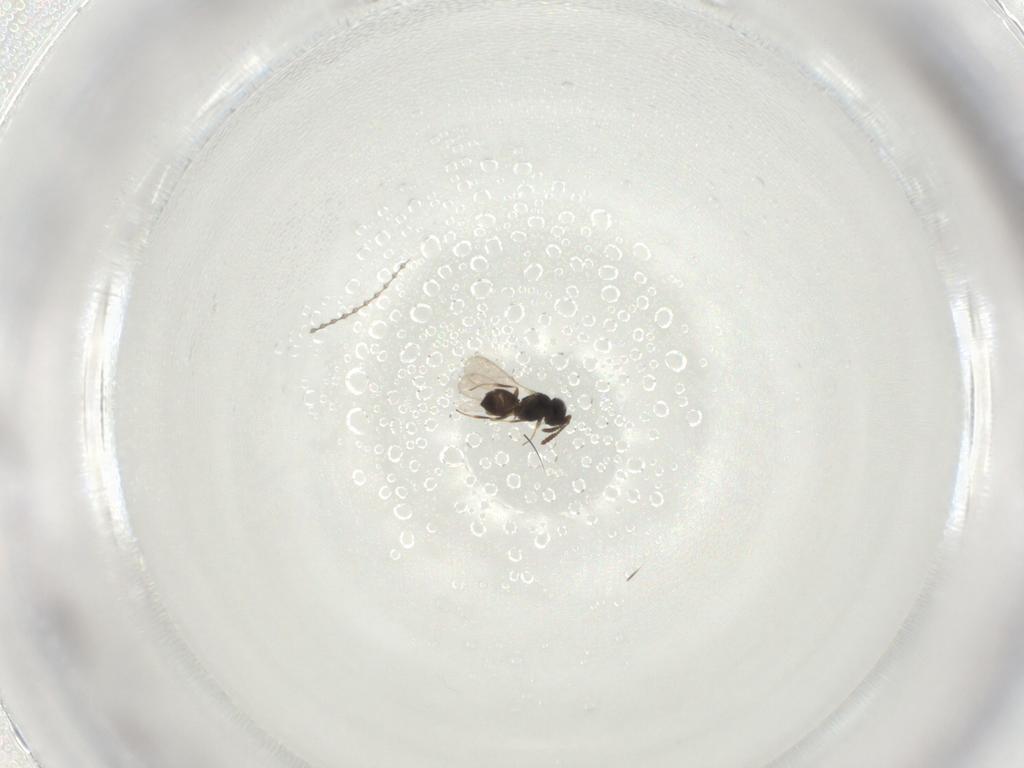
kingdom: Animalia
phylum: Arthropoda
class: Insecta
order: Hymenoptera
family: Scelionidae
